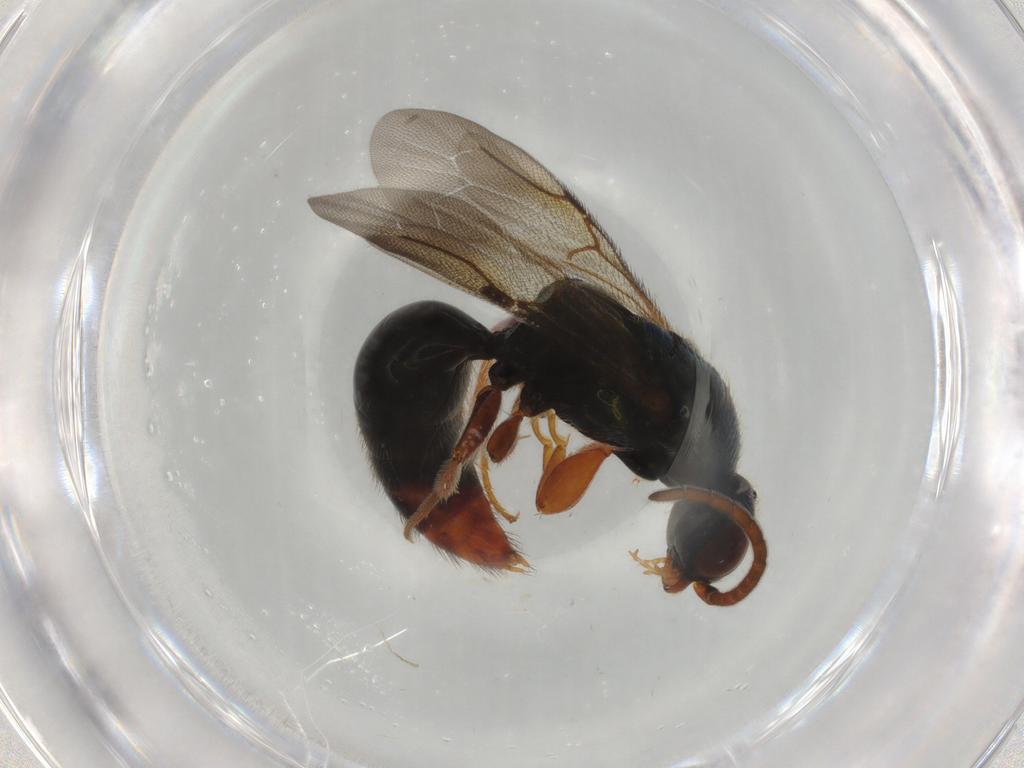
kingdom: Animalia
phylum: Arthropoda
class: Insecta
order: Hymenoptera
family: Bethylidae
